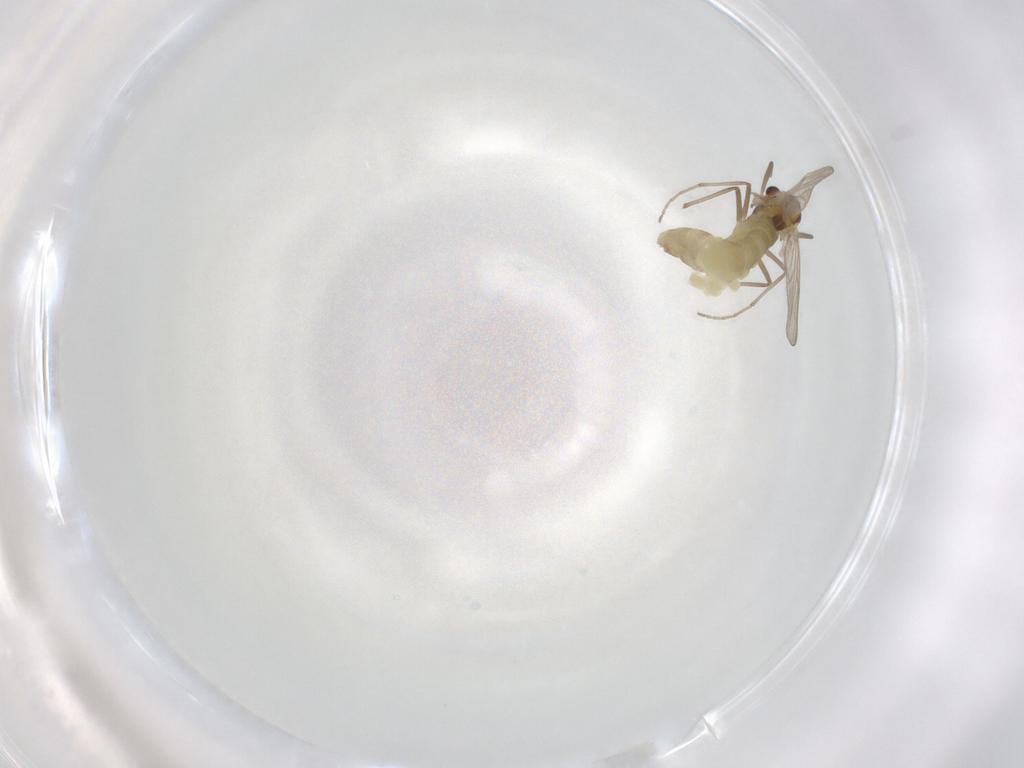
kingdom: Animalia
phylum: Arthropoda
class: Insecta
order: Diptera
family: Chironomidae
